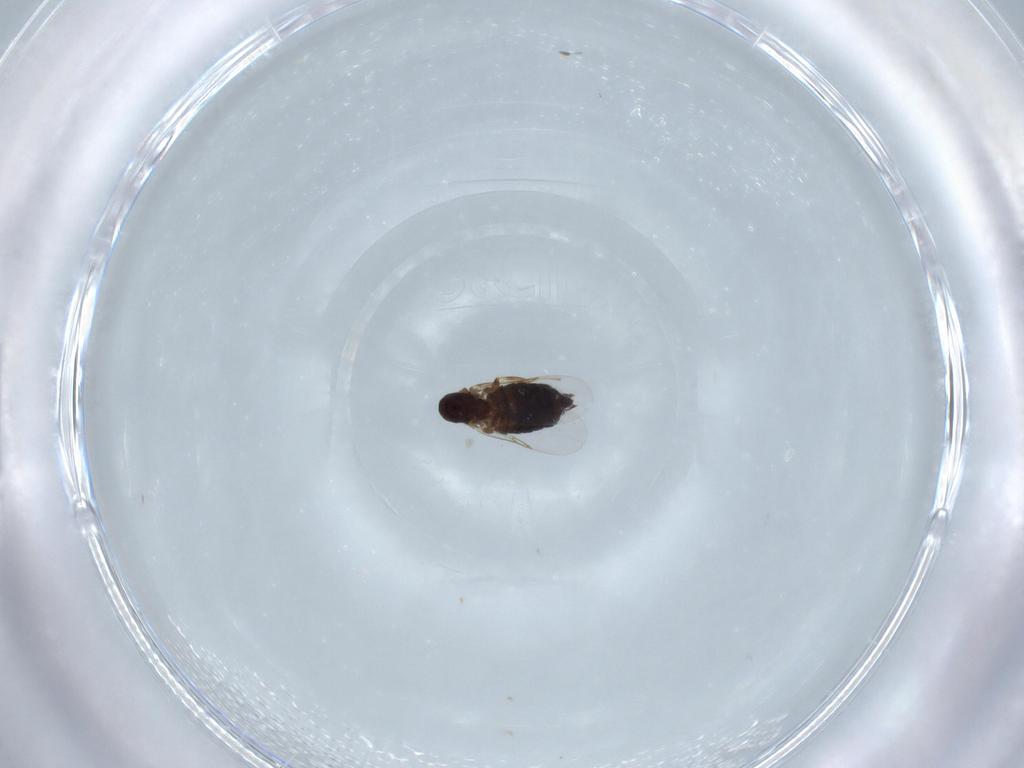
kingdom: Animalia
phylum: Arthropoda
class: Insecta
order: Diptera
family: Scatopsidae
